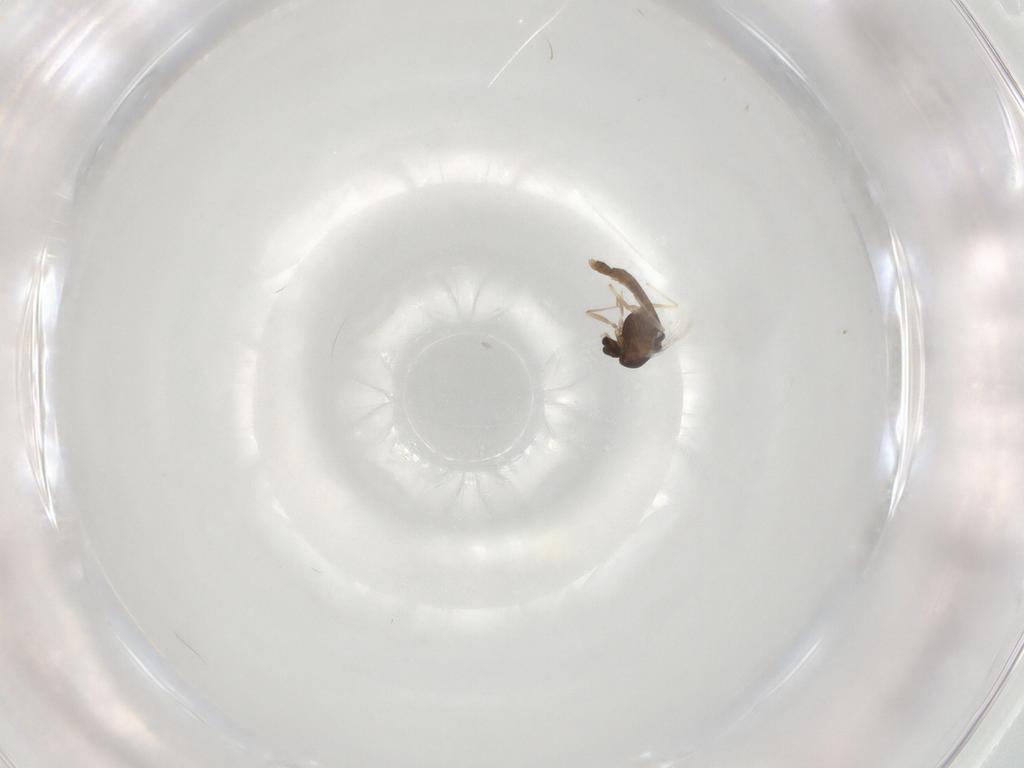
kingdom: Animalia
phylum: Arthropoda
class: Insecta
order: Diptera
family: Chironomidae
